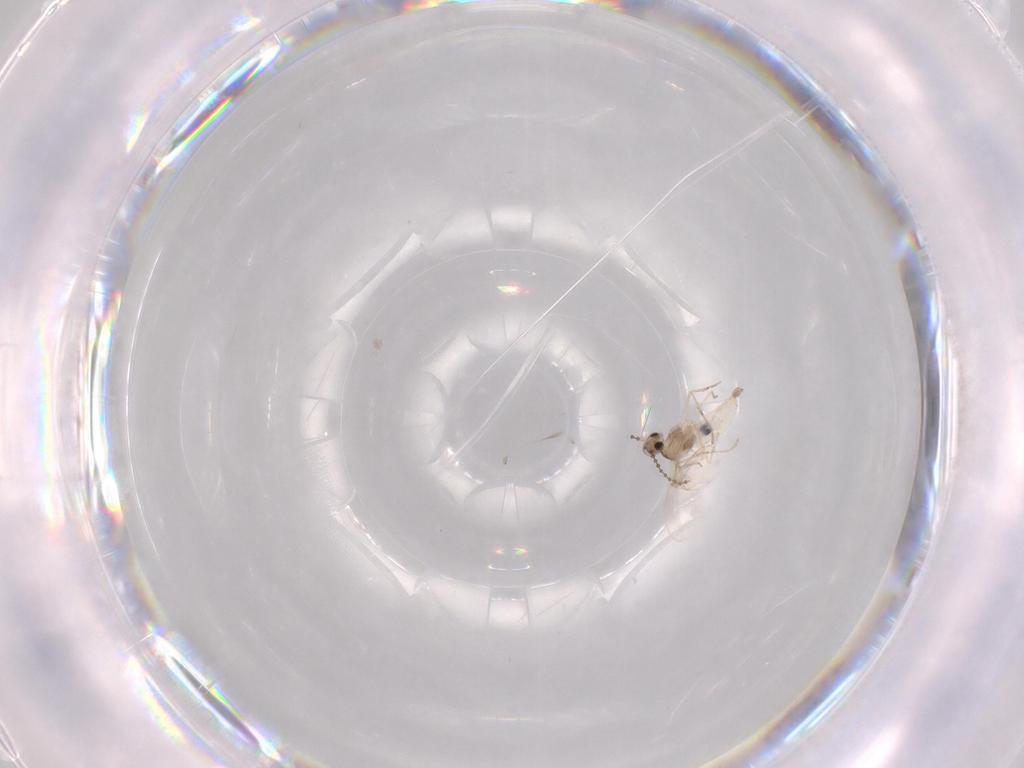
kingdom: Animalia
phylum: Arthropoda
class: Insecta
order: Diptera
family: Cecidomyiidae
